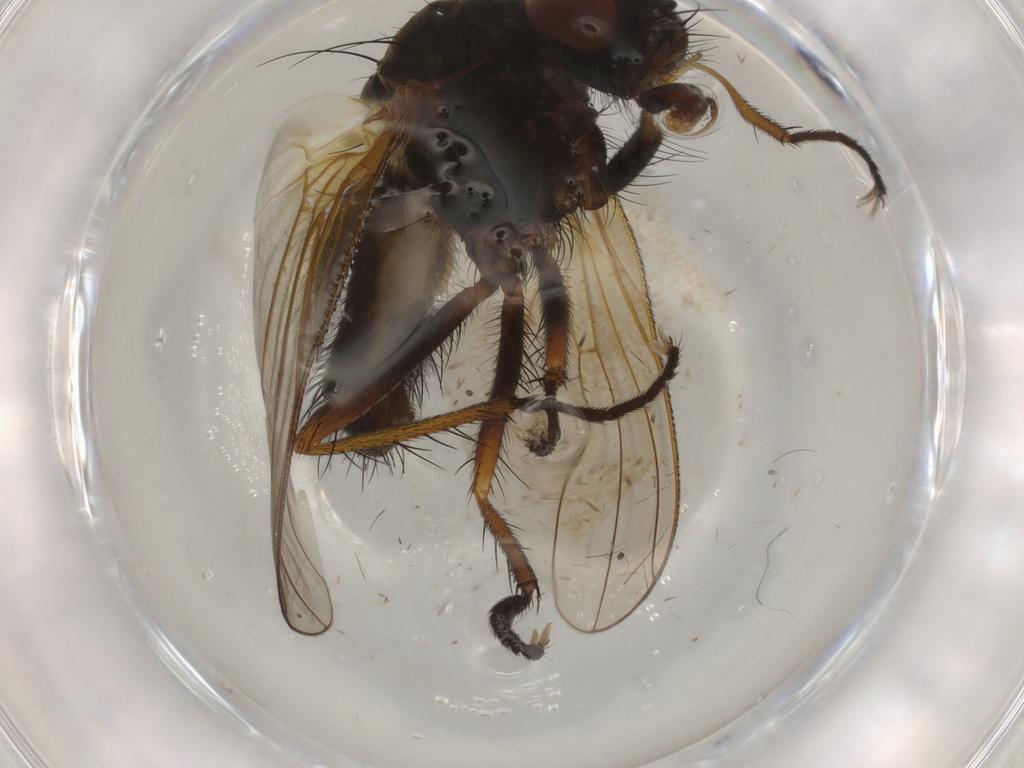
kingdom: Animalia
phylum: Arthropoda
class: Insecta
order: Diptera
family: Anthomyiidae
